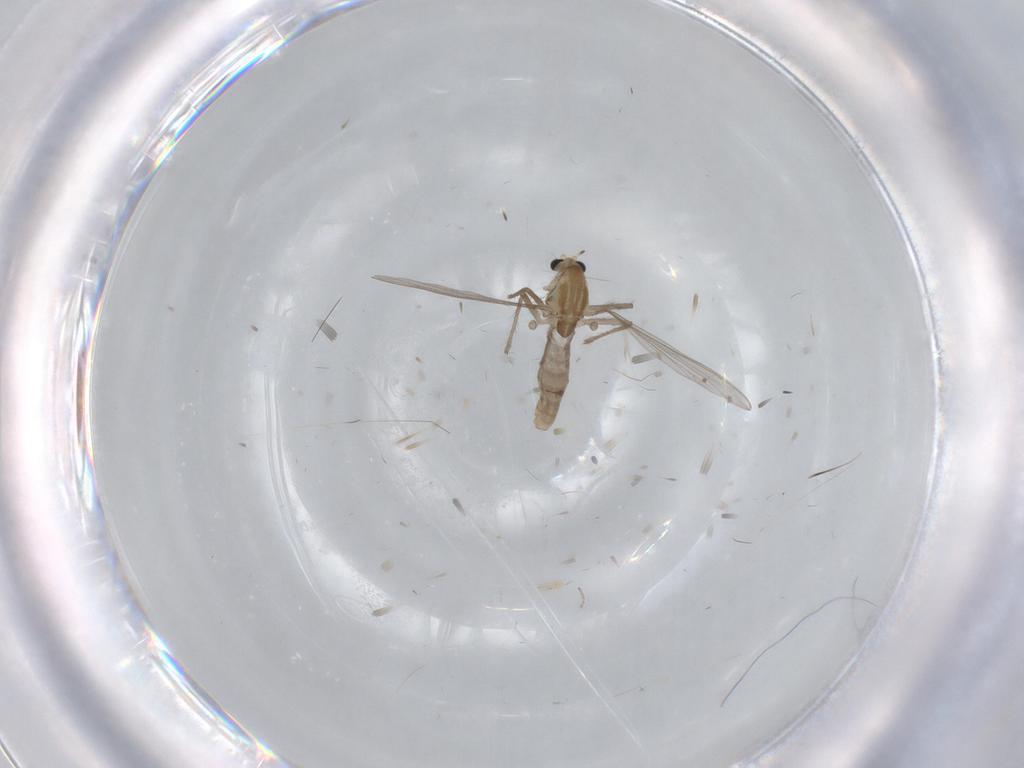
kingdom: Animalia
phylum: Arthropoda
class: Insecta
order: Diptera
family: Chironomidae
